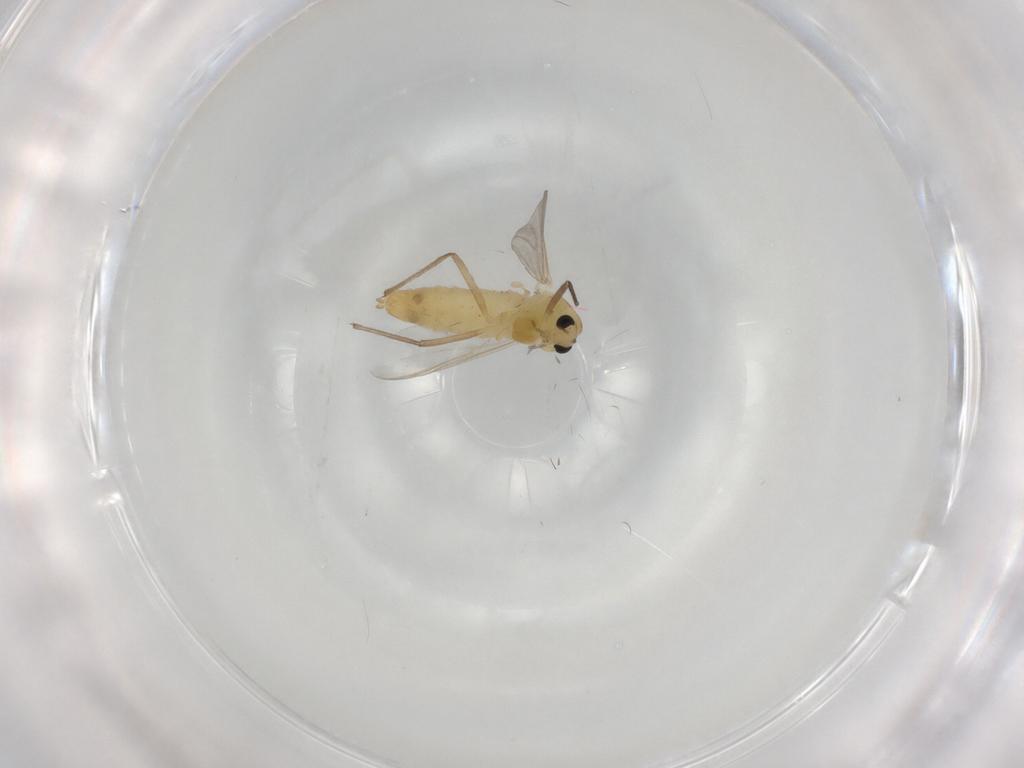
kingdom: Animalia
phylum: Arthropoda
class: Insecta
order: Diptera
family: Chironomidae
